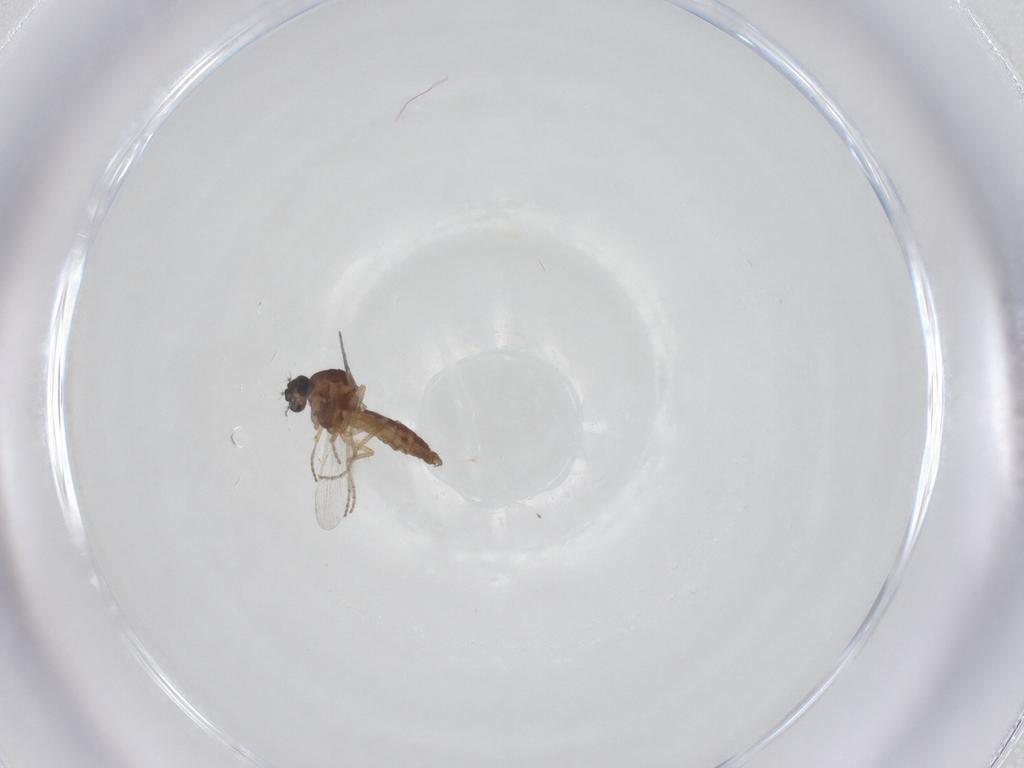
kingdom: Animalia
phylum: Arthropoda
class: Insecta
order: Diptera
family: Ceratopogonidae
